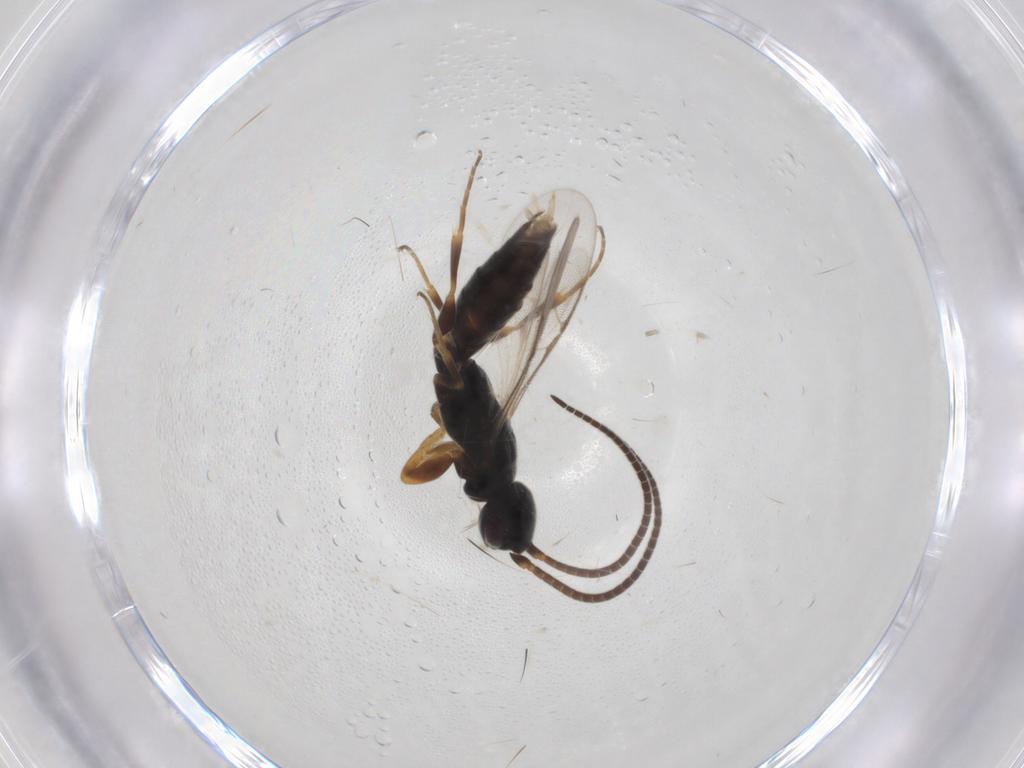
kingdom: Animalia
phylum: Arthropoda
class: Insecta
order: Hymenoptera
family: Sclerogibbidae
